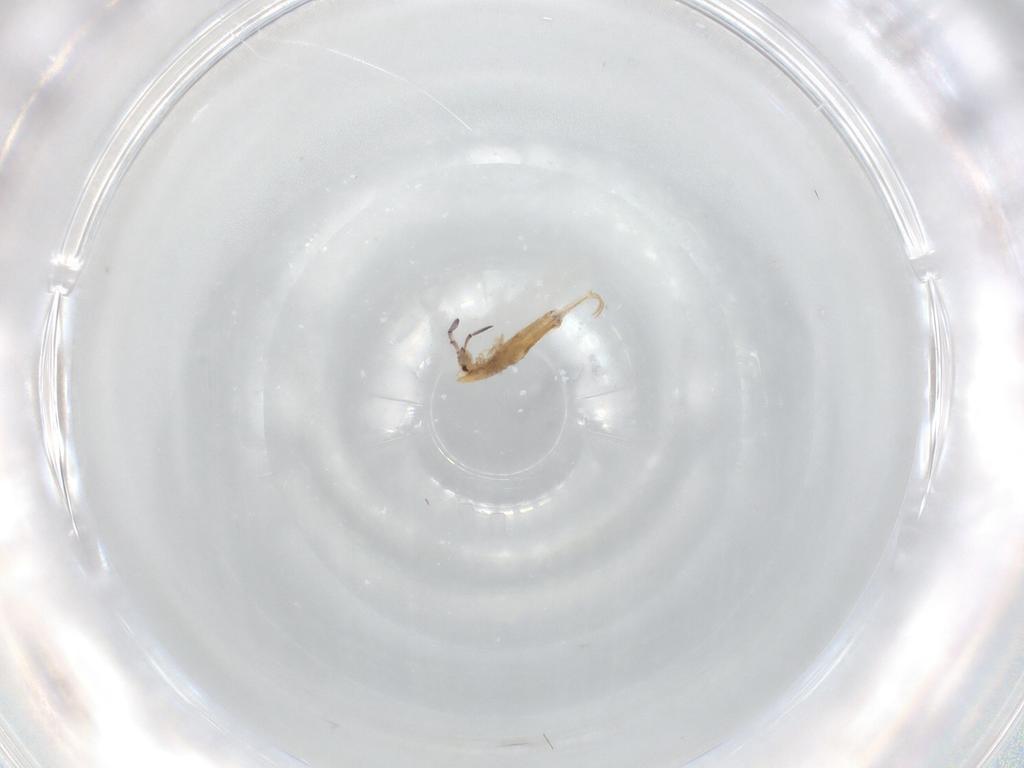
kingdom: Animalia
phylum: Arthropoda
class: Collembola
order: Entomobryomorpha
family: Entomobryidae
